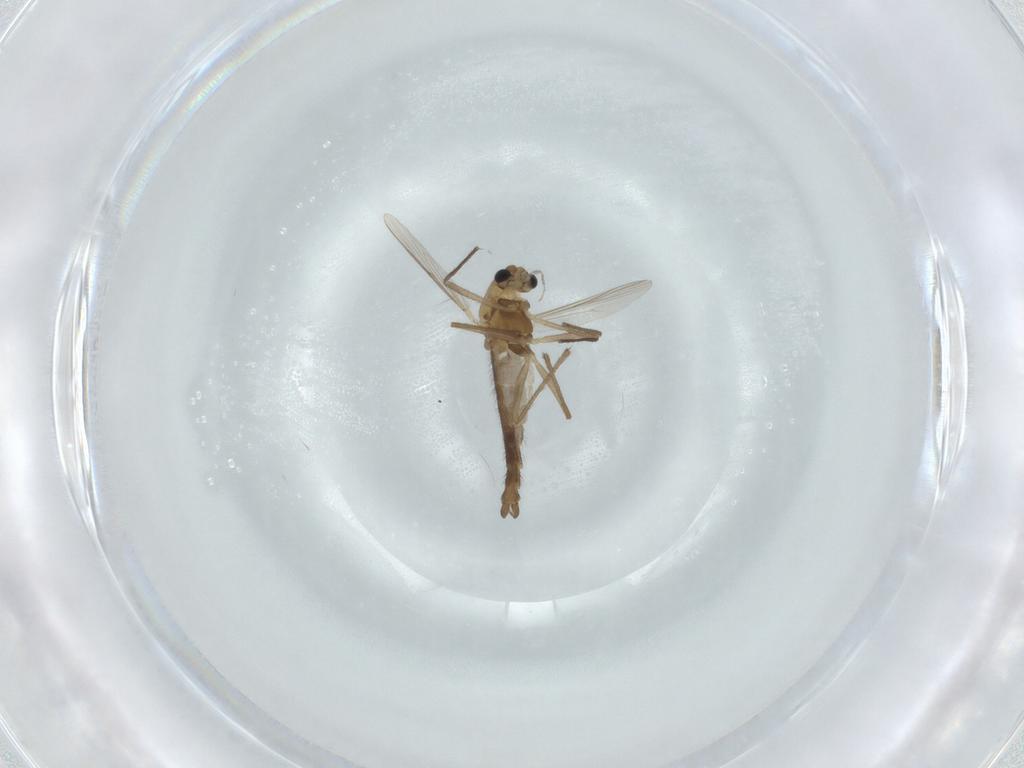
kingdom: Animalia
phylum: Arthropoda
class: Insecta
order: Diptera
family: Chironomidae
